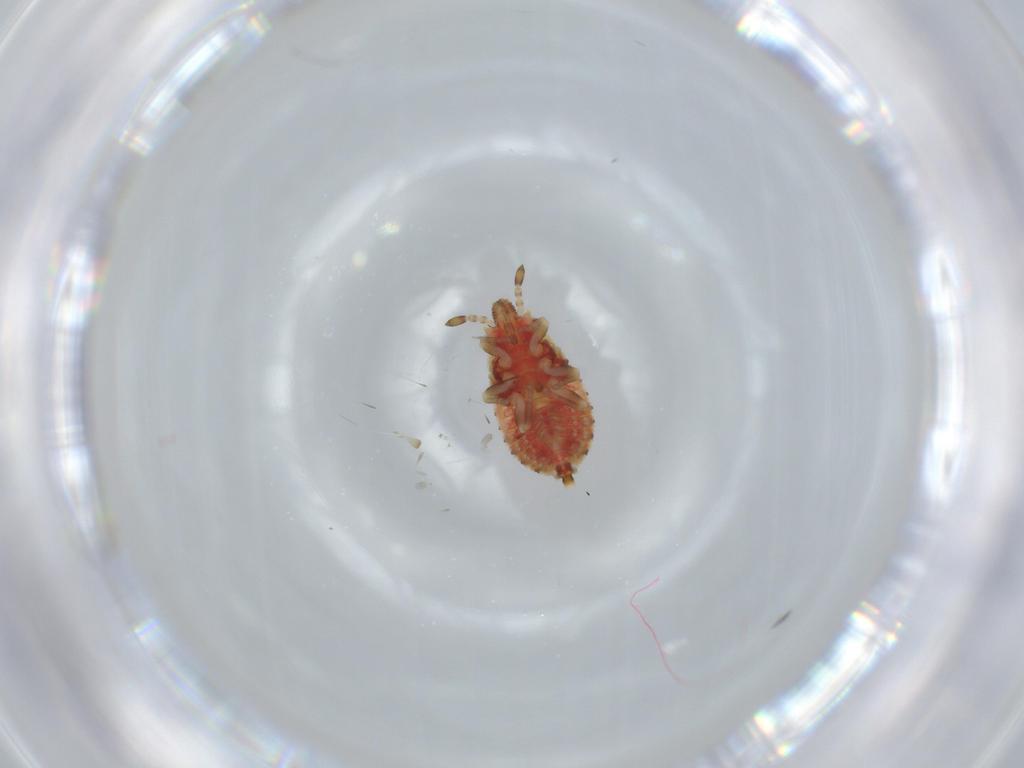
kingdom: Animalia
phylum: Arthropoda
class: Insecta
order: Hemiptera
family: Aradidae
